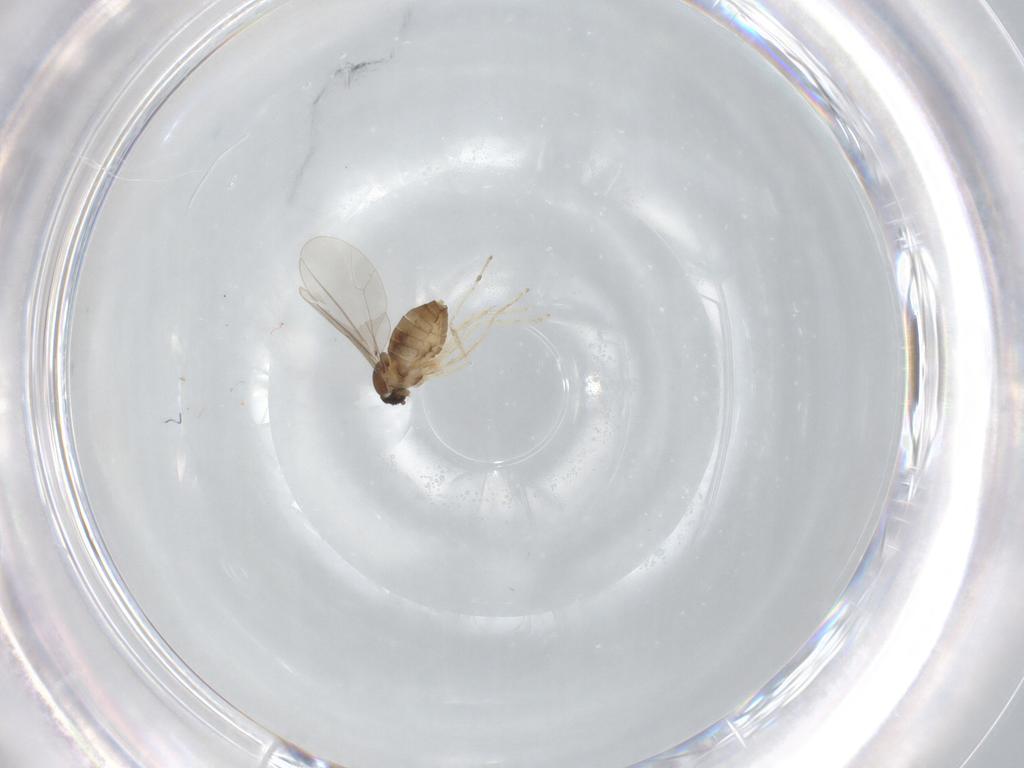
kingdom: Animalia
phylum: Arthropoda
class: Insecta
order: Diptera
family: Cecidomyiidae
